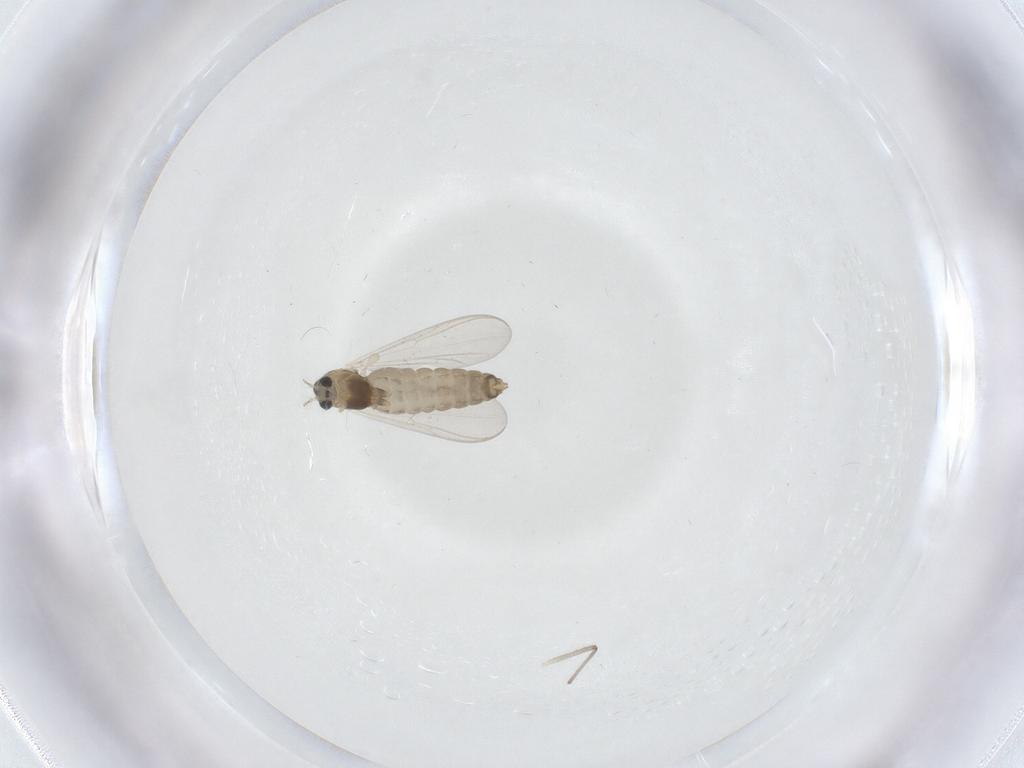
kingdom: Animalia
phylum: Arthropoda
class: Insecta
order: Diptera
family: Chironomidae
